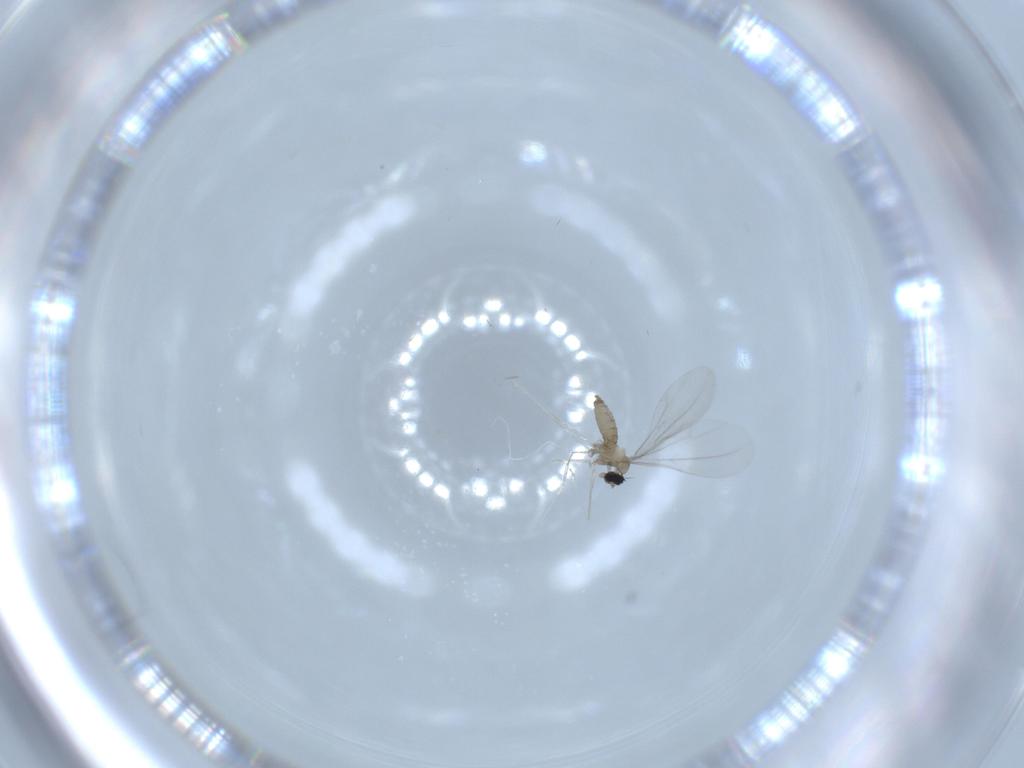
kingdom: Animalia
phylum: Arthropoda
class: Insecta
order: Diptera
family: Cecidomyiidae
